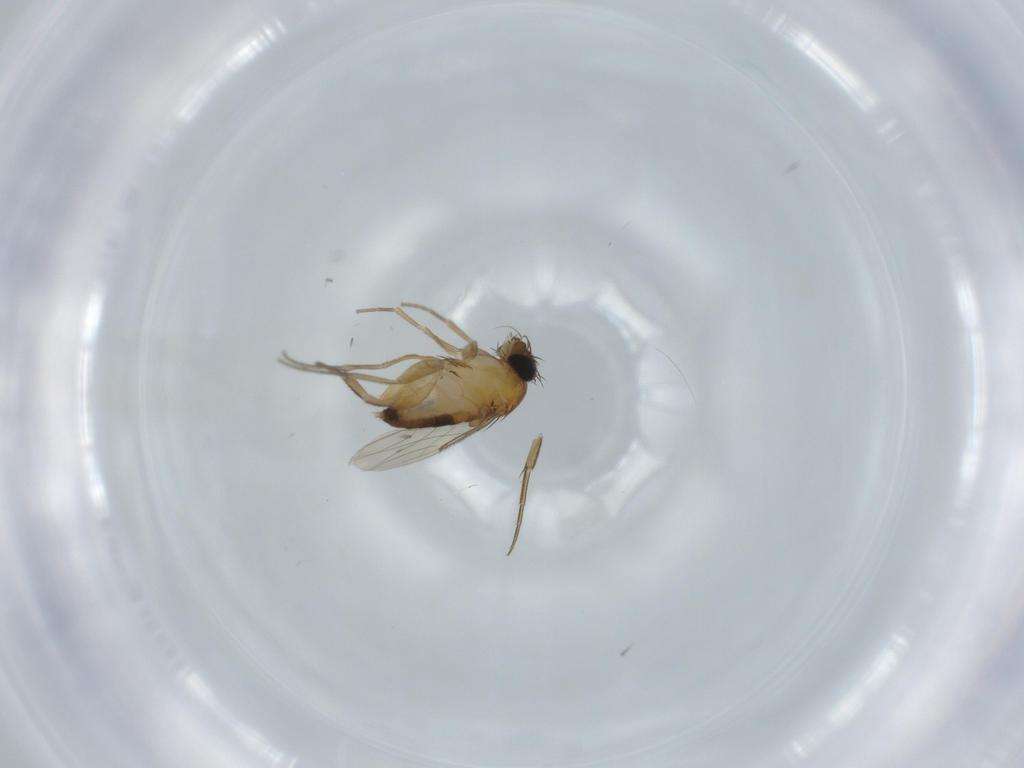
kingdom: Animalia
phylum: Arthropoda
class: Insecta
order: Diptera
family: Phoridae
